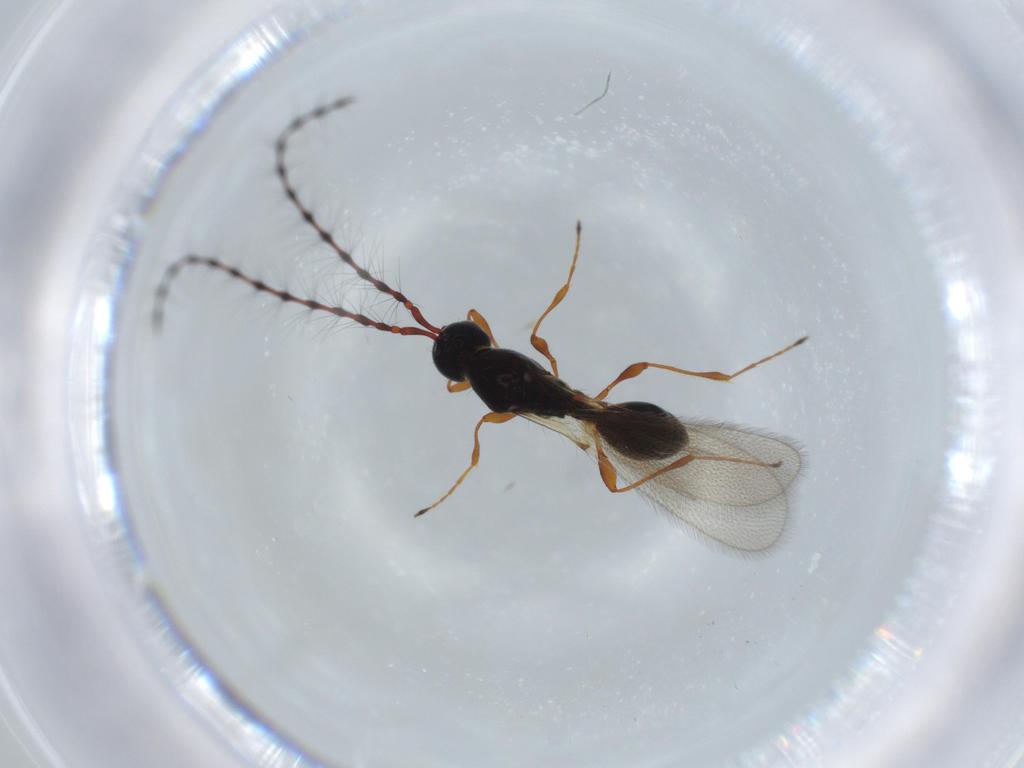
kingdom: Animalia
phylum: Arthropoda
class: Insecta
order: Hymenoptera
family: Diapriidae
